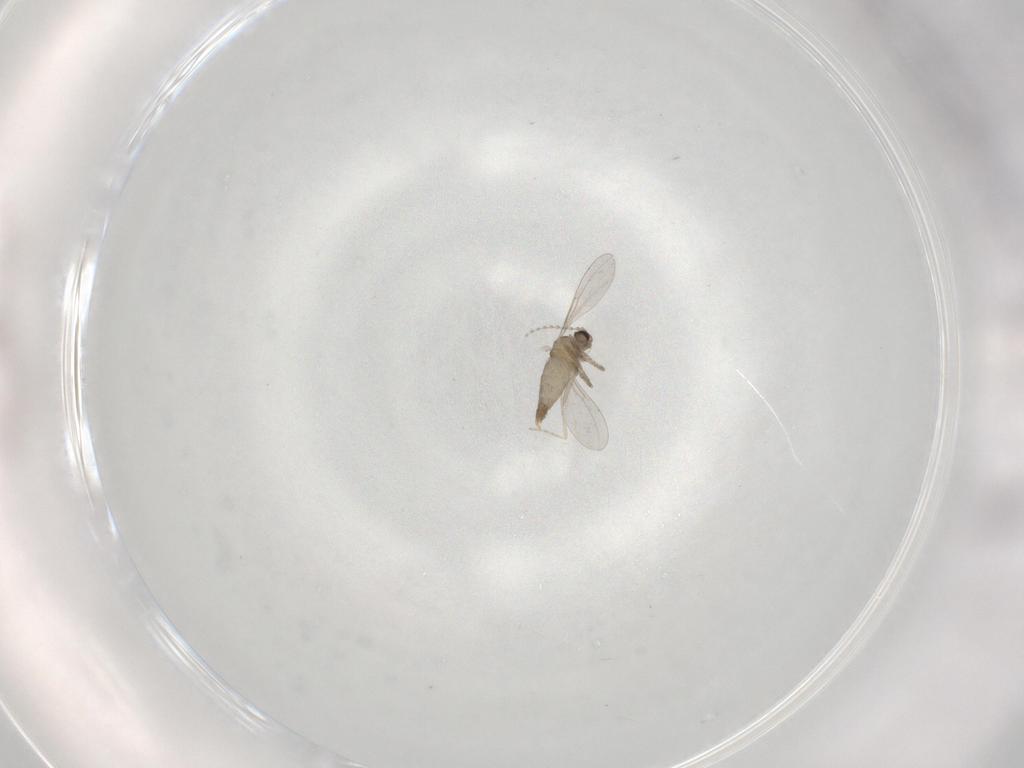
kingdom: Animalia
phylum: Arthropoda
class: Insecta
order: Diptera
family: Cecidomyiidae
